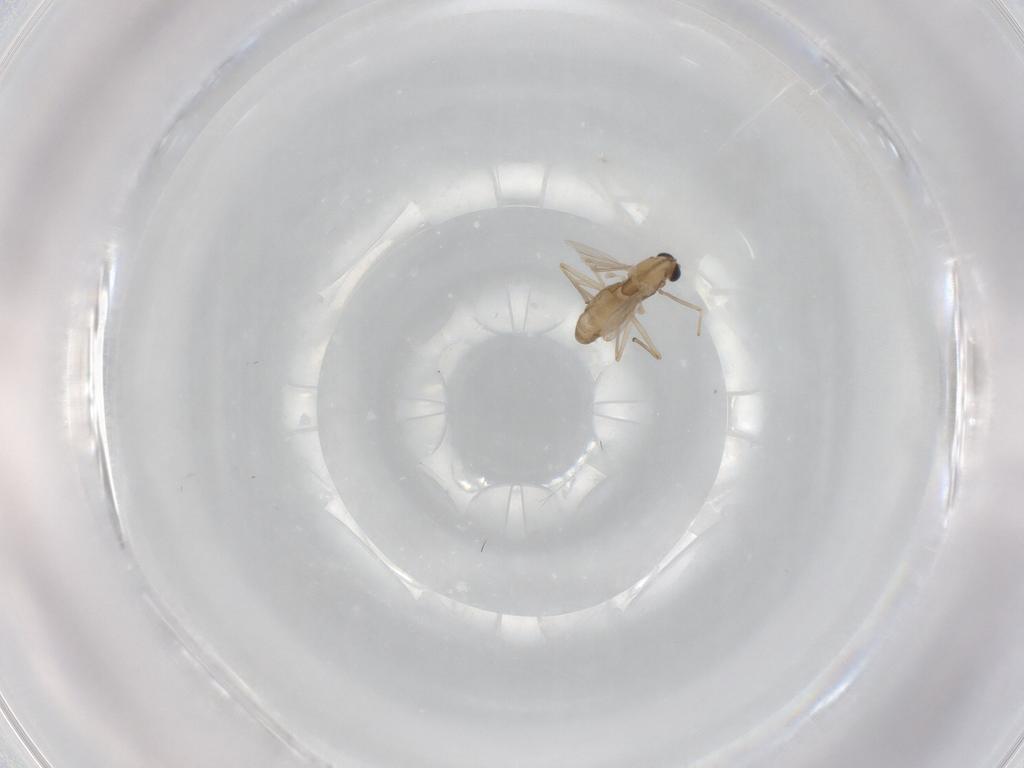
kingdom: Animalia
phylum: Arthropoda
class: Insecta
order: Diptera
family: Chironomidae
